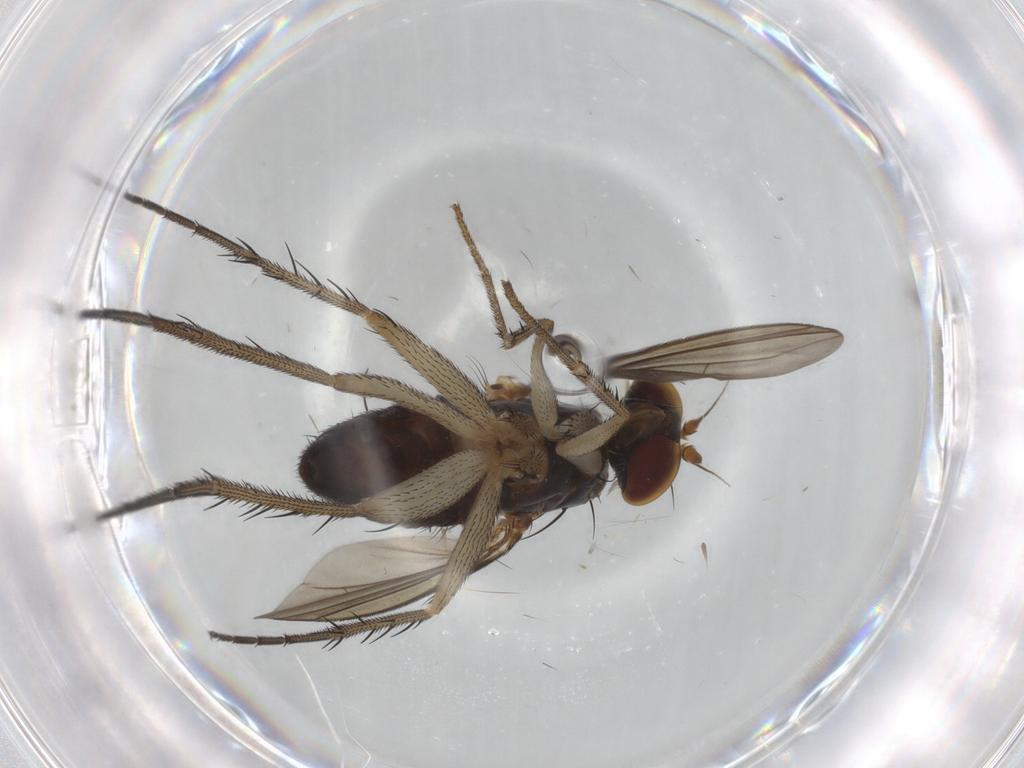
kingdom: Animalia
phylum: Arthropoda
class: Insecta
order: Diptera
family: Dolichopodidae
